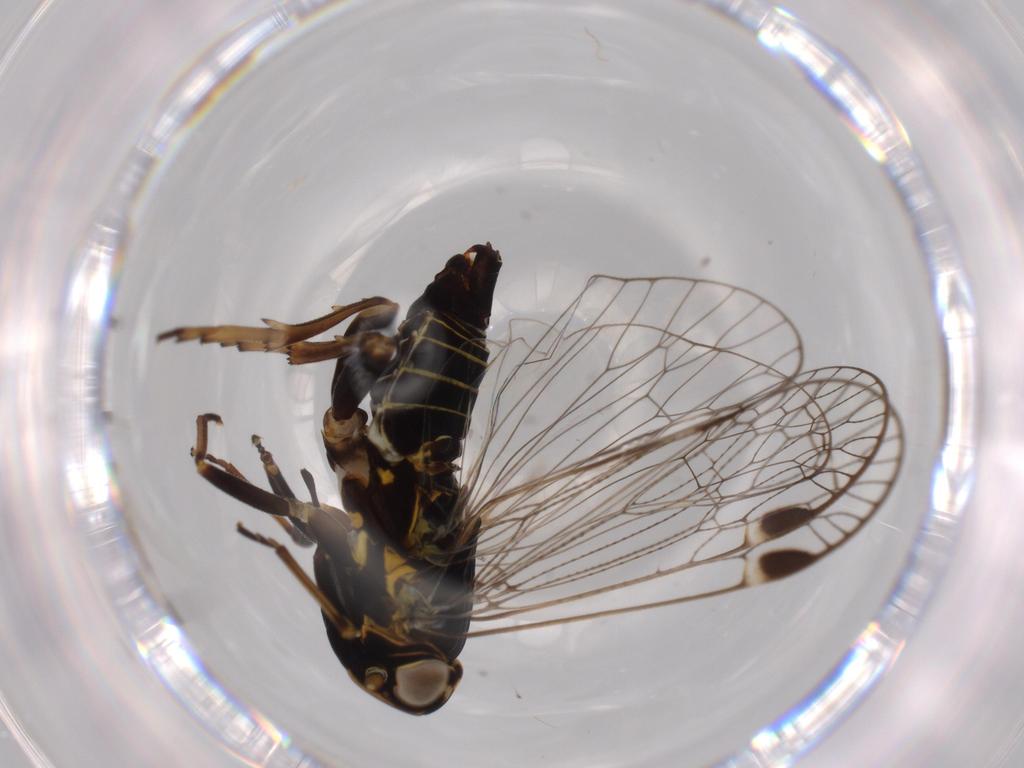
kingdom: Animalia
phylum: Arthropoda
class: Insecta
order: Hemiptera
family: Cixiidae
